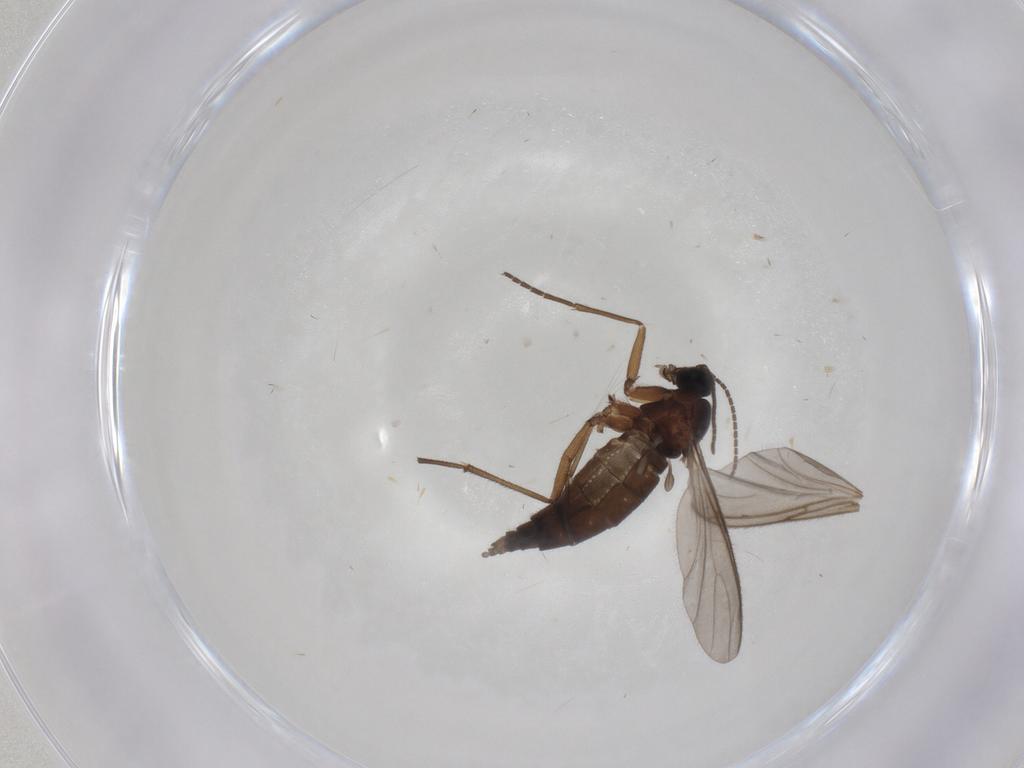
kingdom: Animalia
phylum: Arthropoda
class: Insecta
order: Diptera
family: Sciaridae
